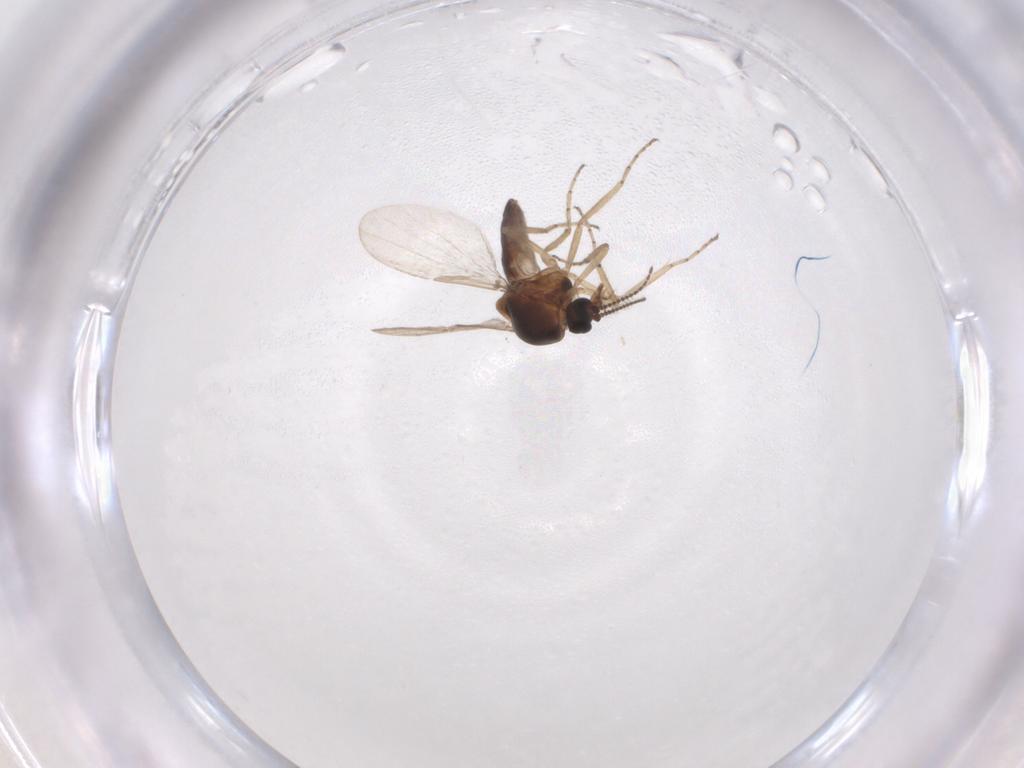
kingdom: Animalia
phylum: Arthropoda
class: Insecta
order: Diptera
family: Ceratopogonidae
